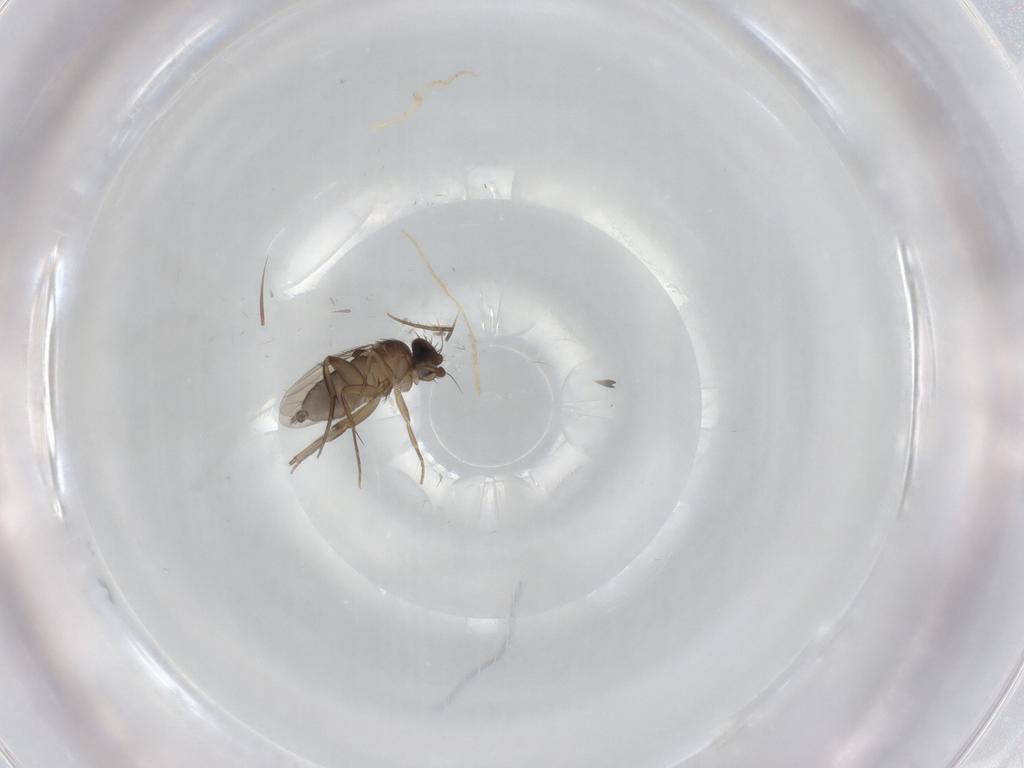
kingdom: Animalia
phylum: Arthropoda
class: Insecta
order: Diptera
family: Phoridae
